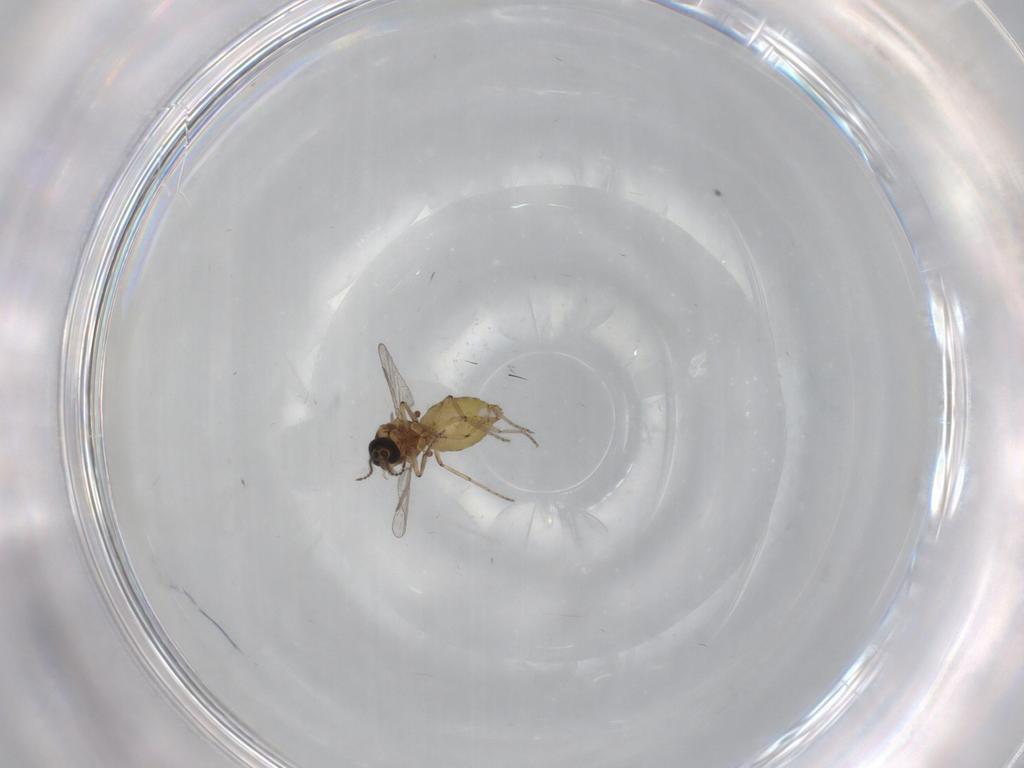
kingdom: Animalia
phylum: Arthropoda
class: Insecta
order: Diptera
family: Ceratopogonidae
